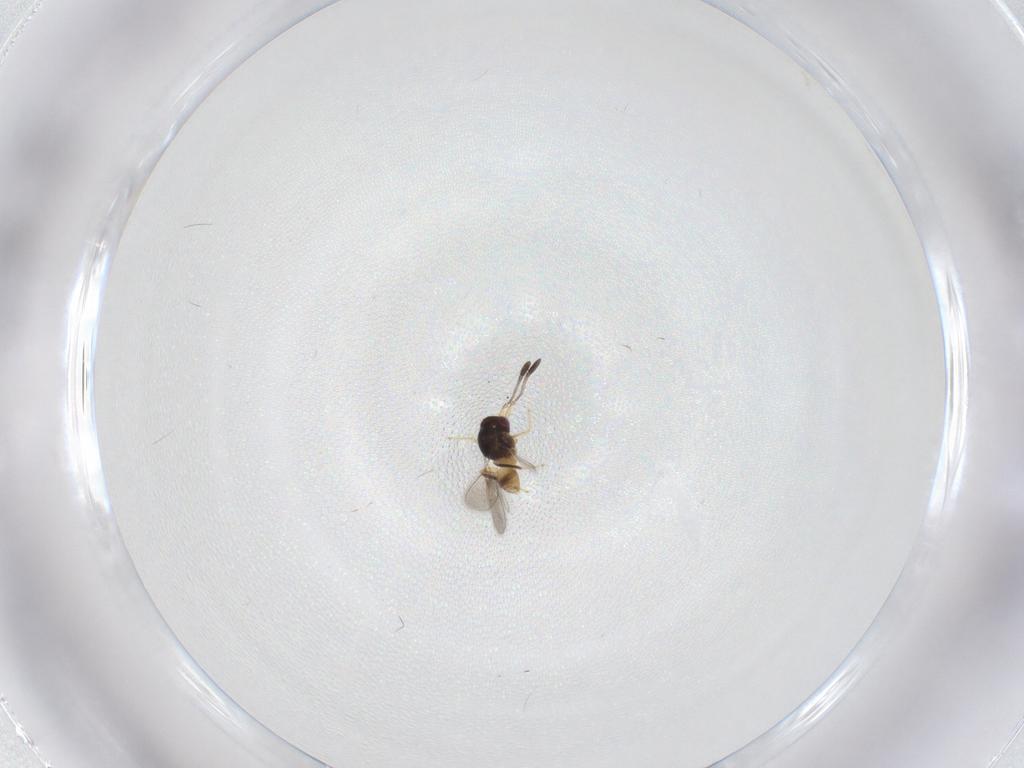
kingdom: Animalia
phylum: Arthropoda
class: Insecta
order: Hymenoptera
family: Mymaridae
